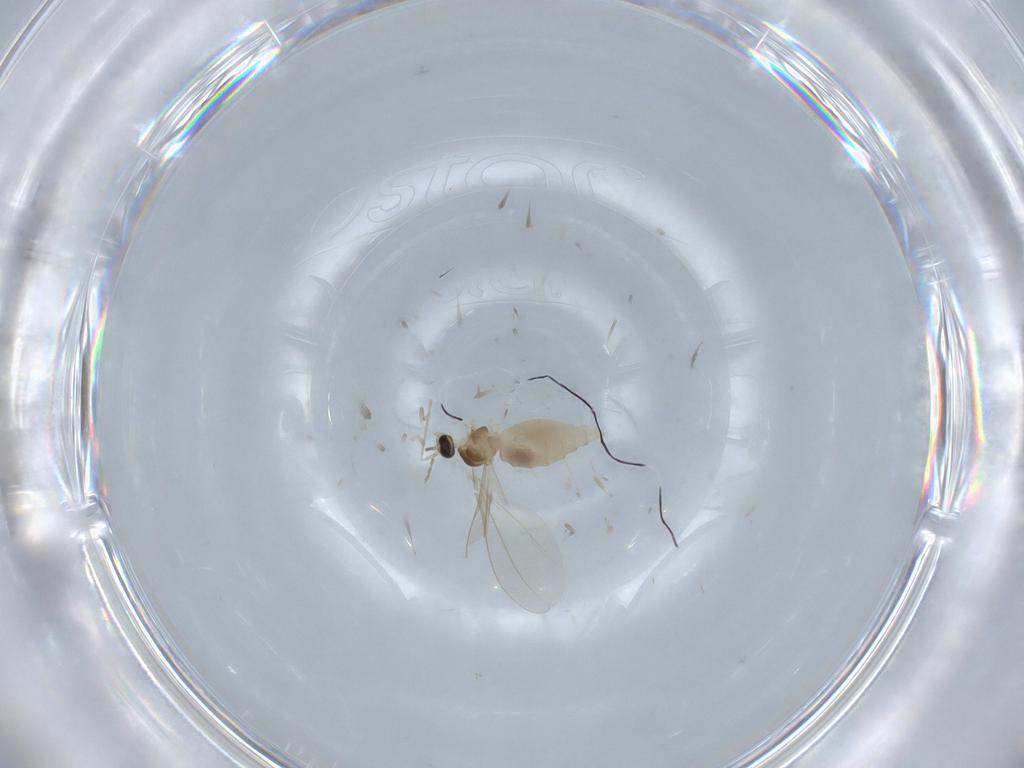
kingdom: Animalia
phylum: Arthropoda
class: Insecta
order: Diptera
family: Cecidomyiidae
